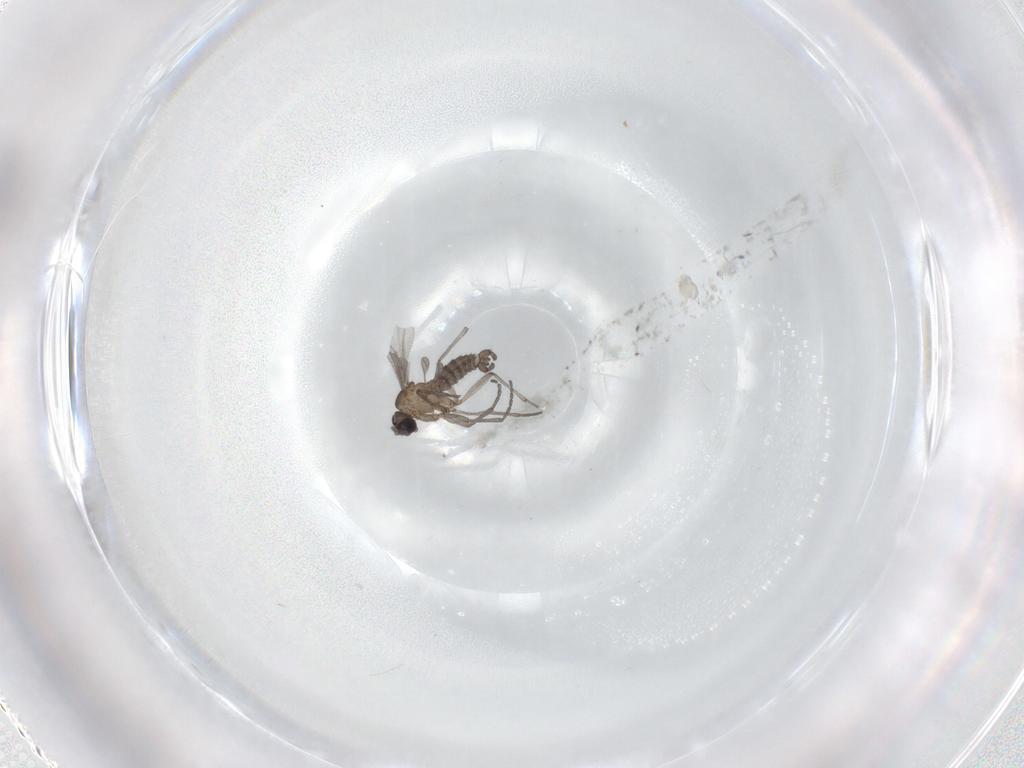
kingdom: Animalia
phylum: Arthropoda
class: Insecta
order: Diptera
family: Sciaridae
